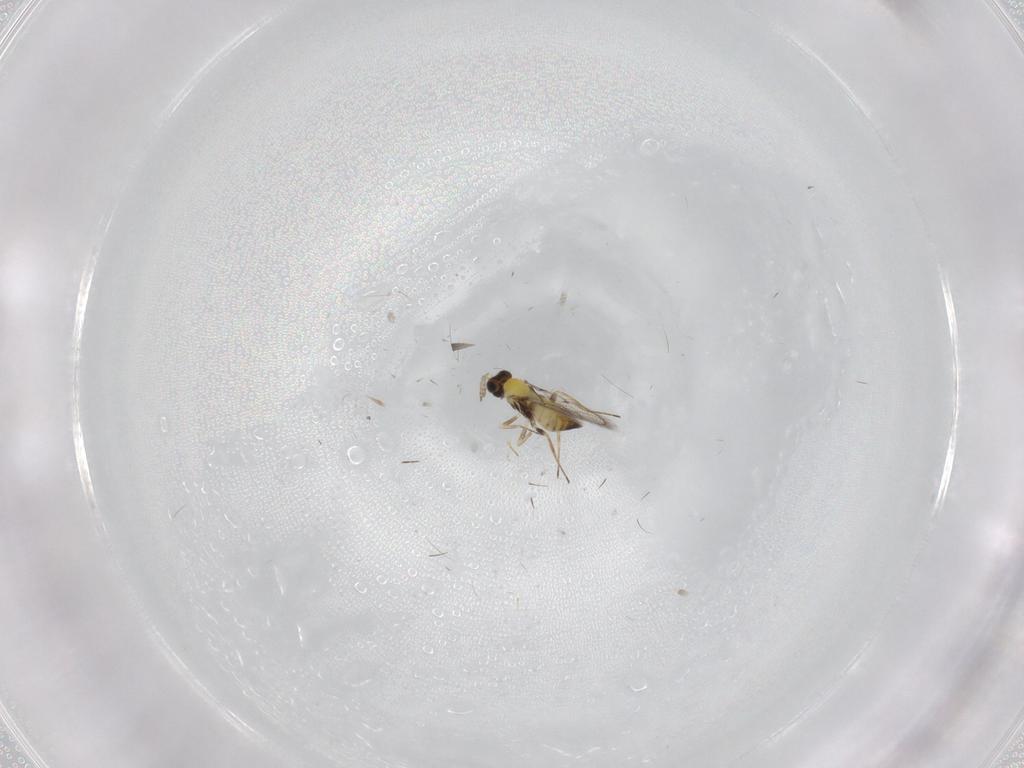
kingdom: Animalia
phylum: Arthropoda
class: Insecta
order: Hymenoptera
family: Trichogrammatidae
